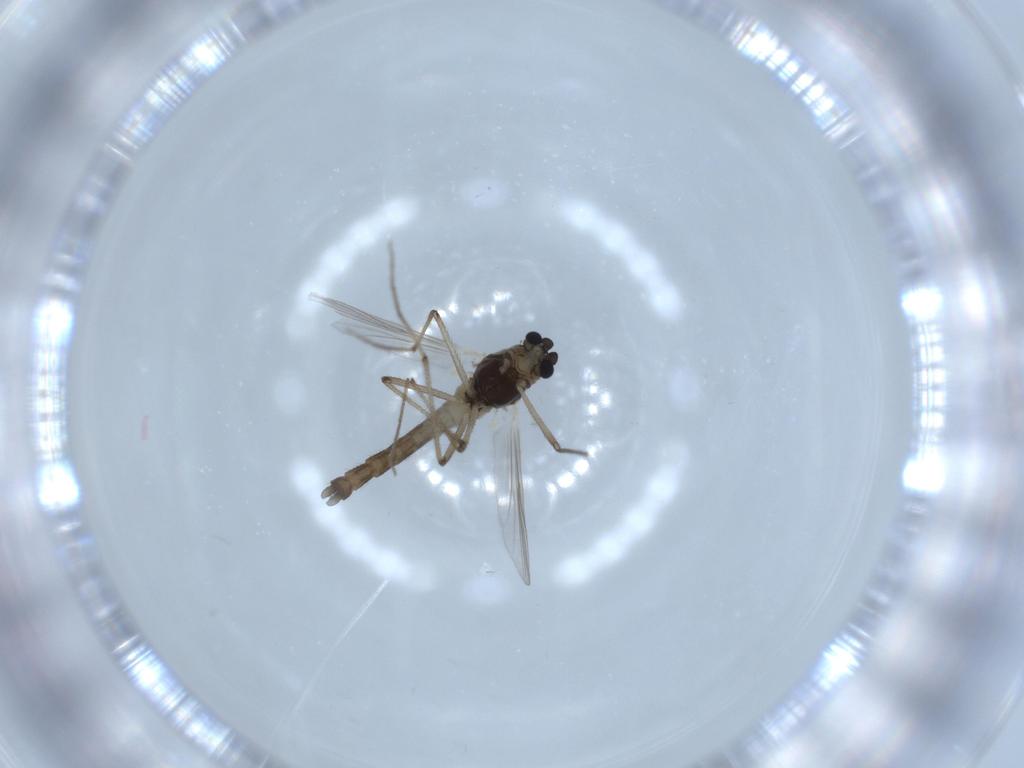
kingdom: Animalia
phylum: Arthropoda
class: Insecta
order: Diptera
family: Chironomidae
